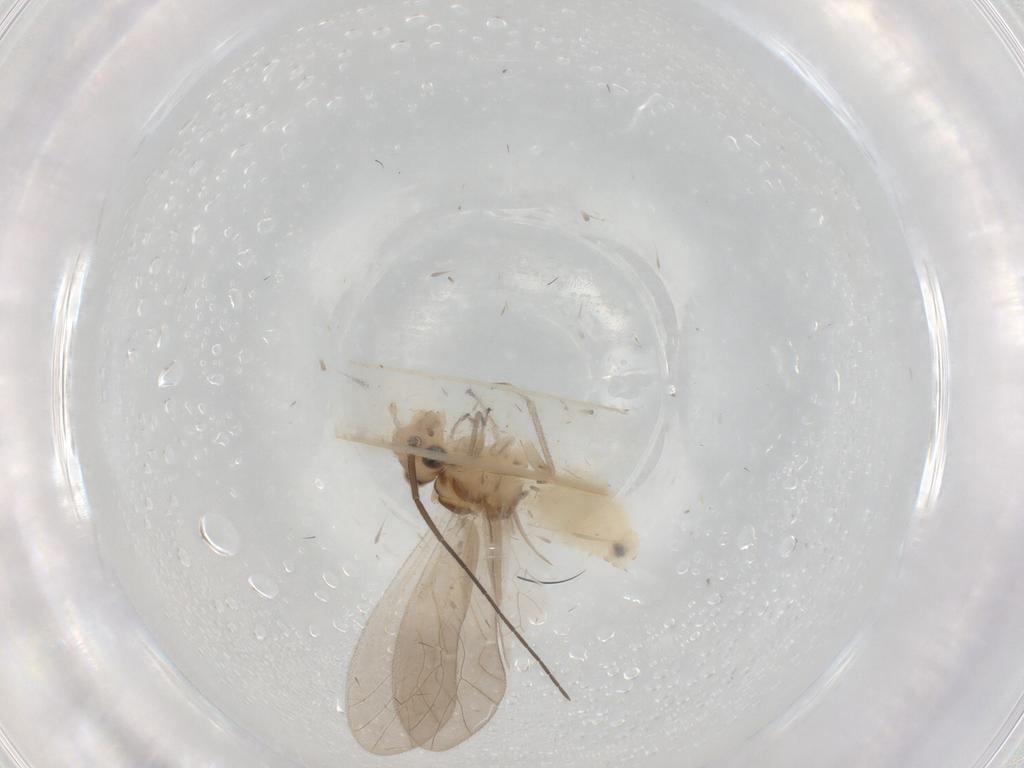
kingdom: Animalia
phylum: Arthropoda
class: Insecta
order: Psocodea
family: Caeciliusidae
